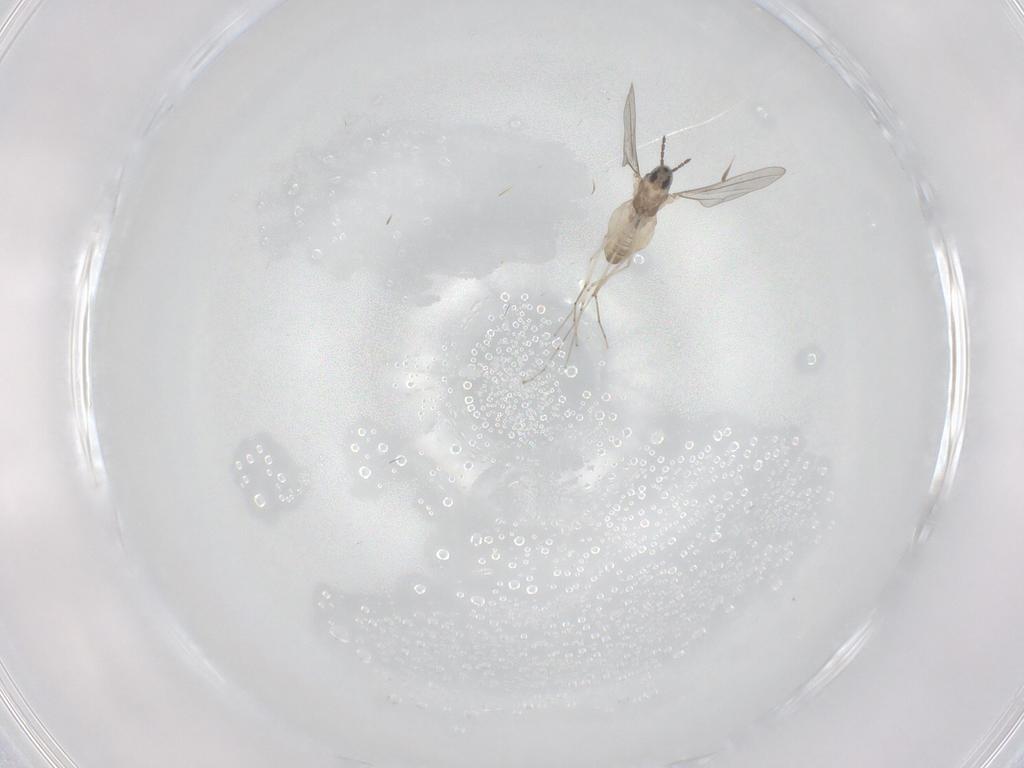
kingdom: Animalia
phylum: Arthropoda
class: Insecta
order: Diptera
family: Cecidomyiidae
